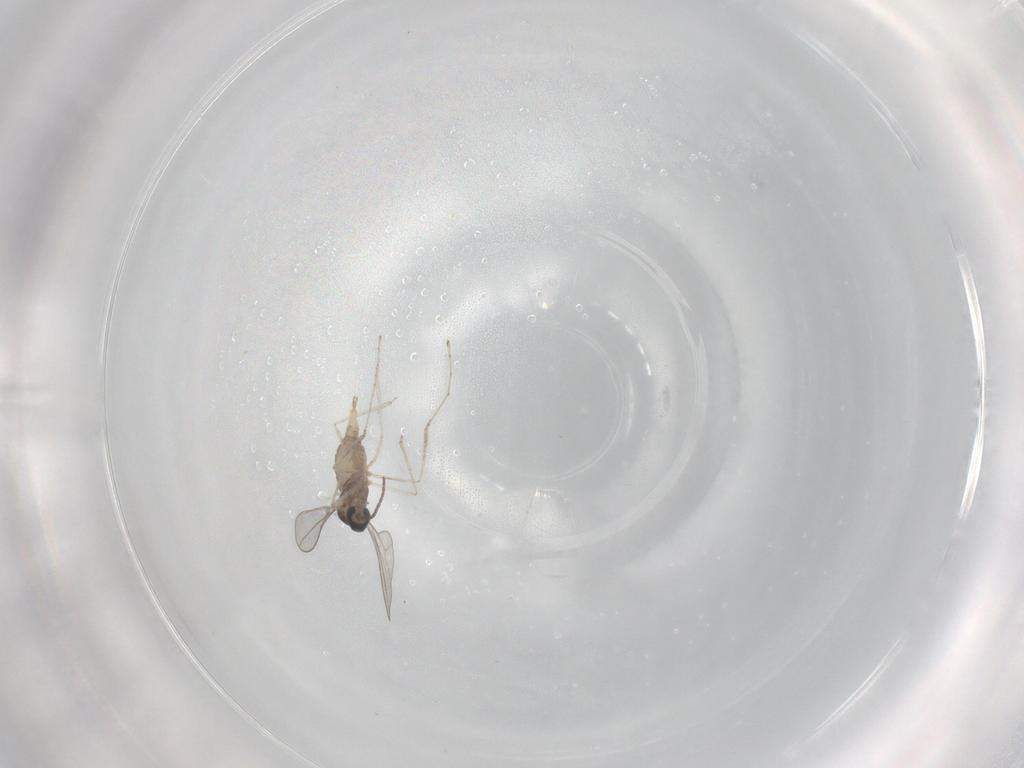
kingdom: Animalia
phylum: Arthropoda
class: Insecta
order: Diptera
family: Cecidomyiidae
